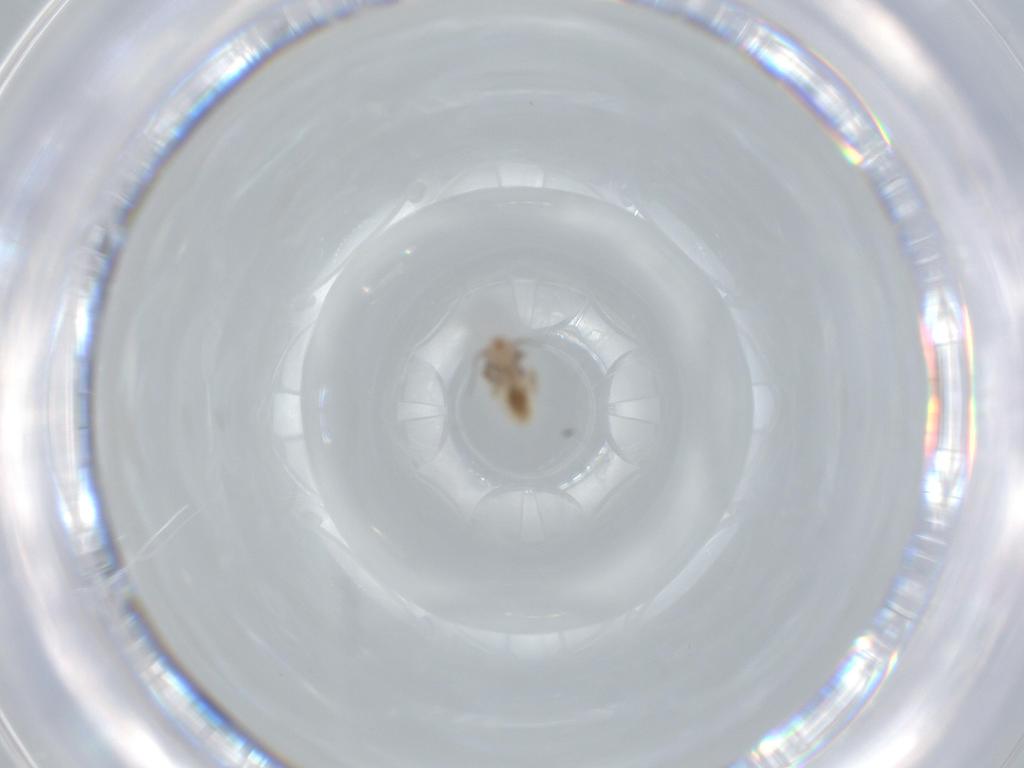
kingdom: Animalia
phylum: Arthropoda
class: Insecta
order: Psocodea
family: Lepidopsocidae
